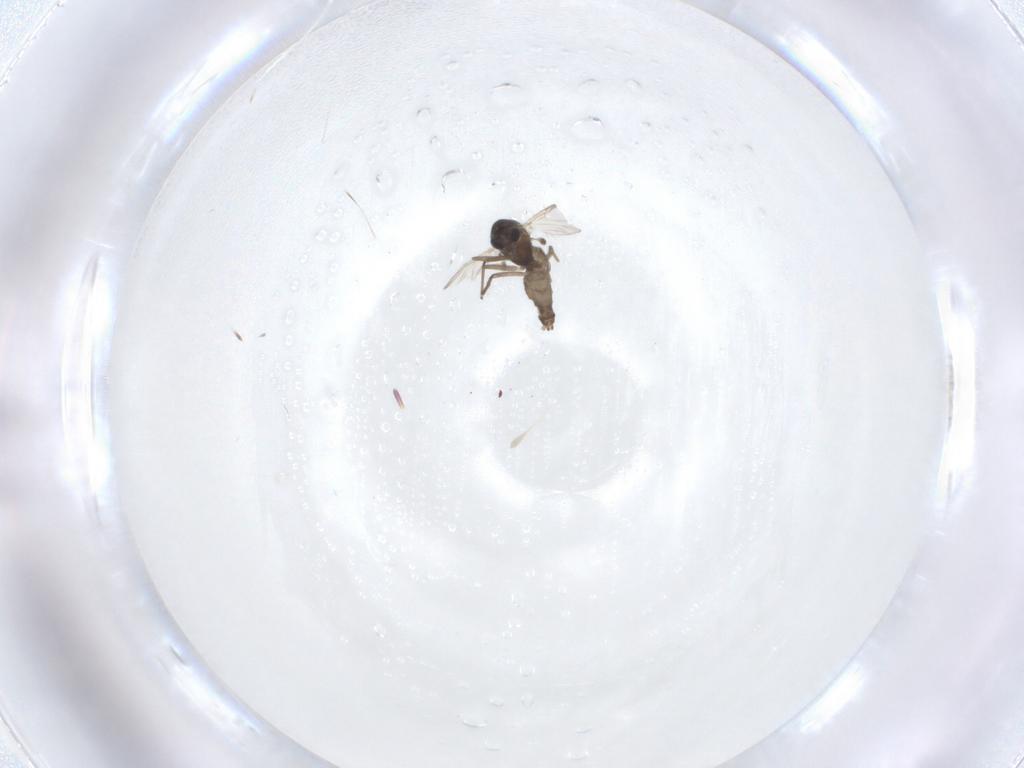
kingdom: Animalia
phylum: Arthropoda
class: Insecta
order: Diptera
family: Chironomidae
